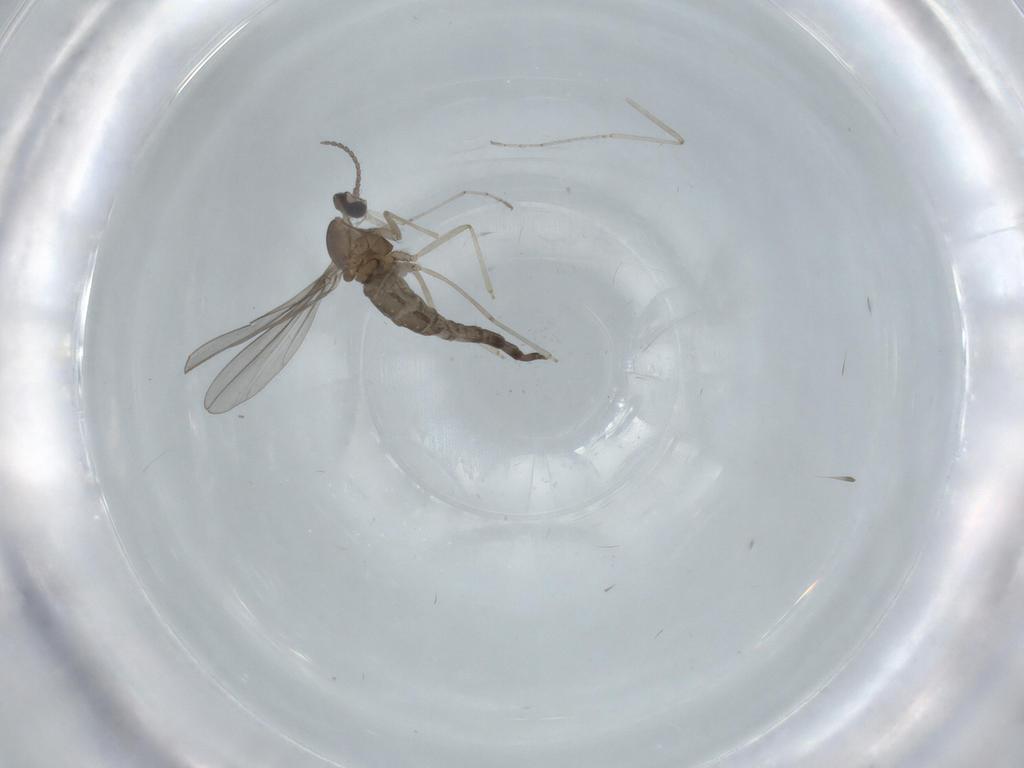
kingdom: Animalia
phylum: Arthropoda
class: Insecta
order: Diptera
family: Cecidomyiidae
